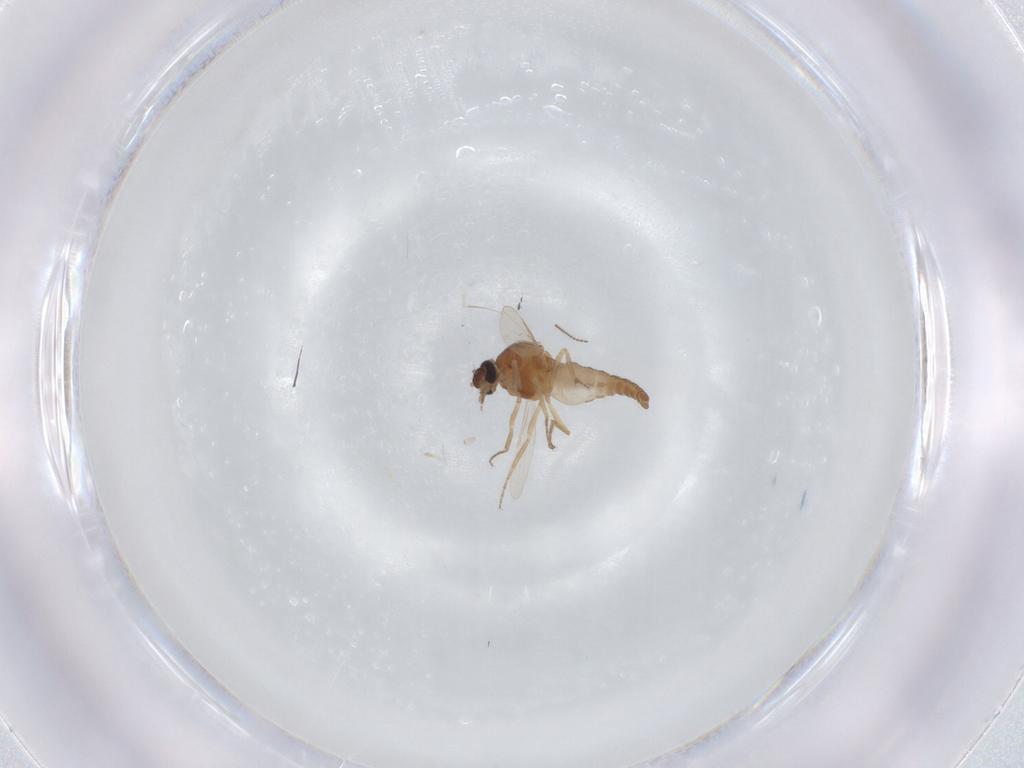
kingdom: Animalia
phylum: Arthropoda
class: Insecta
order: Diptera
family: Ceratopogonidae
